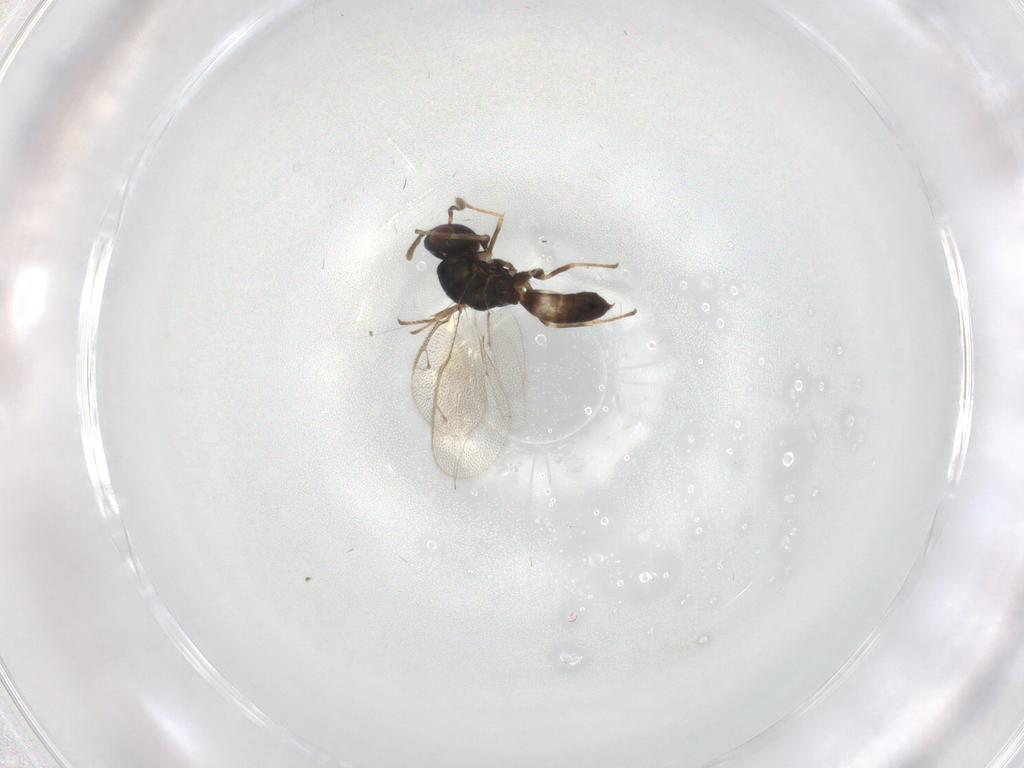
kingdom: Animalia
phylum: Arthropoda
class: Insecta
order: Hymenoptera
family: Pteromalidae
